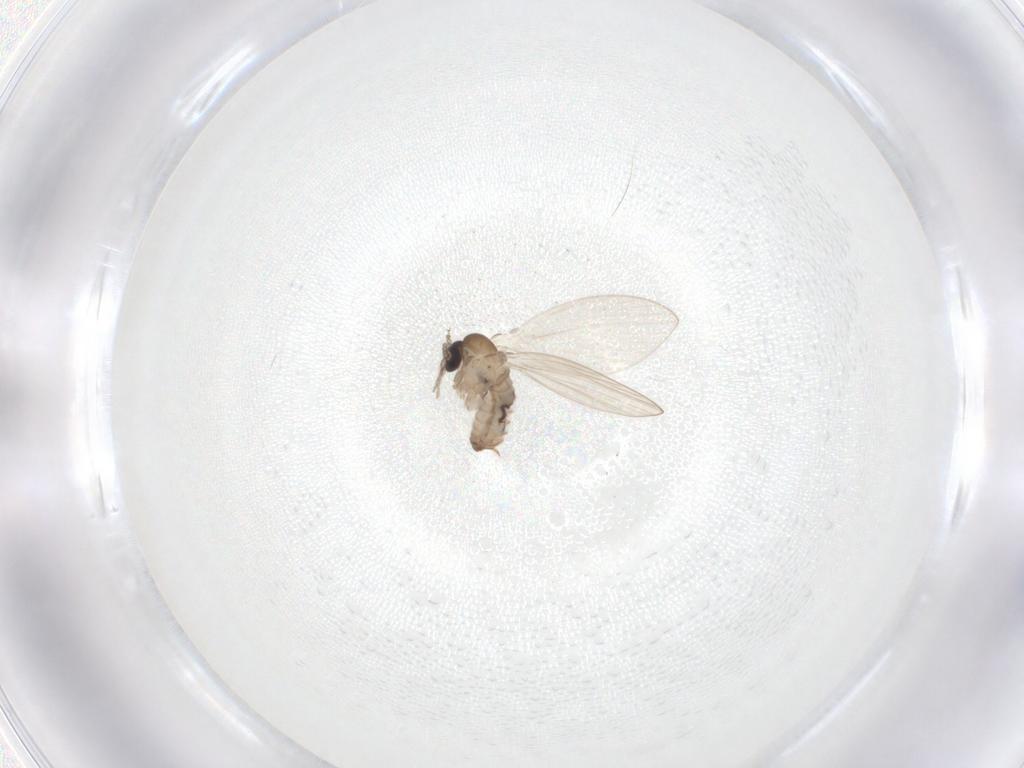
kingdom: Animalia
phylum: Arthropoda
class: Insecta
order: Diptera
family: Psychodidae
